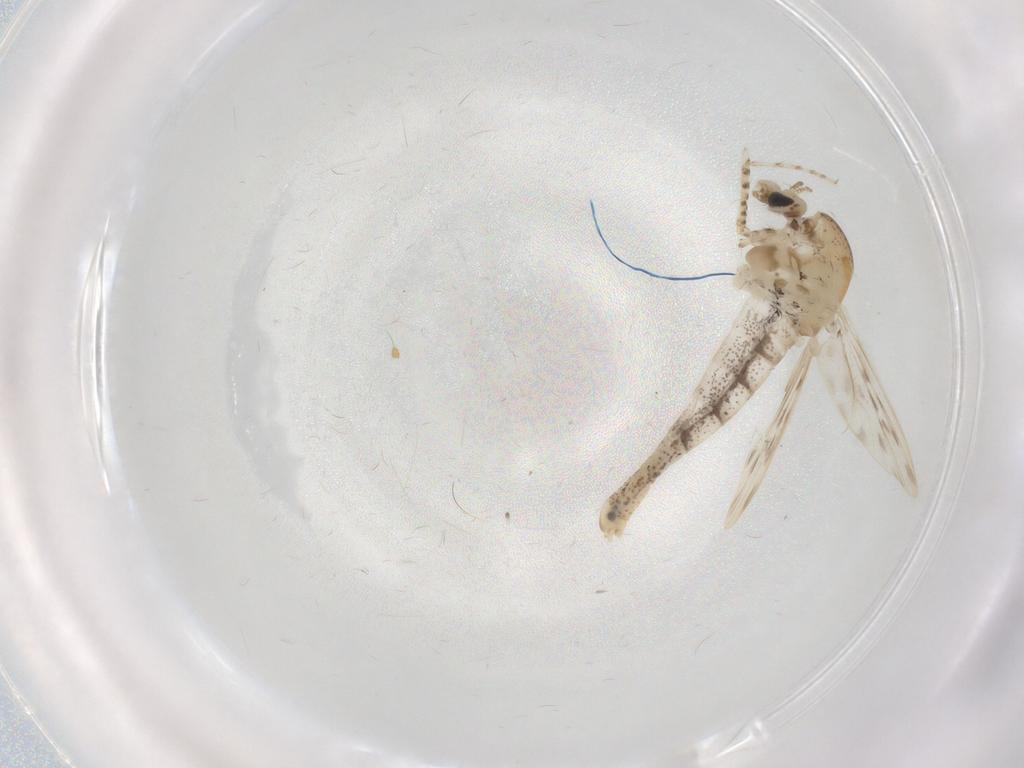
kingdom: Animalia
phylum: Arthropoda
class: Insecta
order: Diptera
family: Chaoboridae
